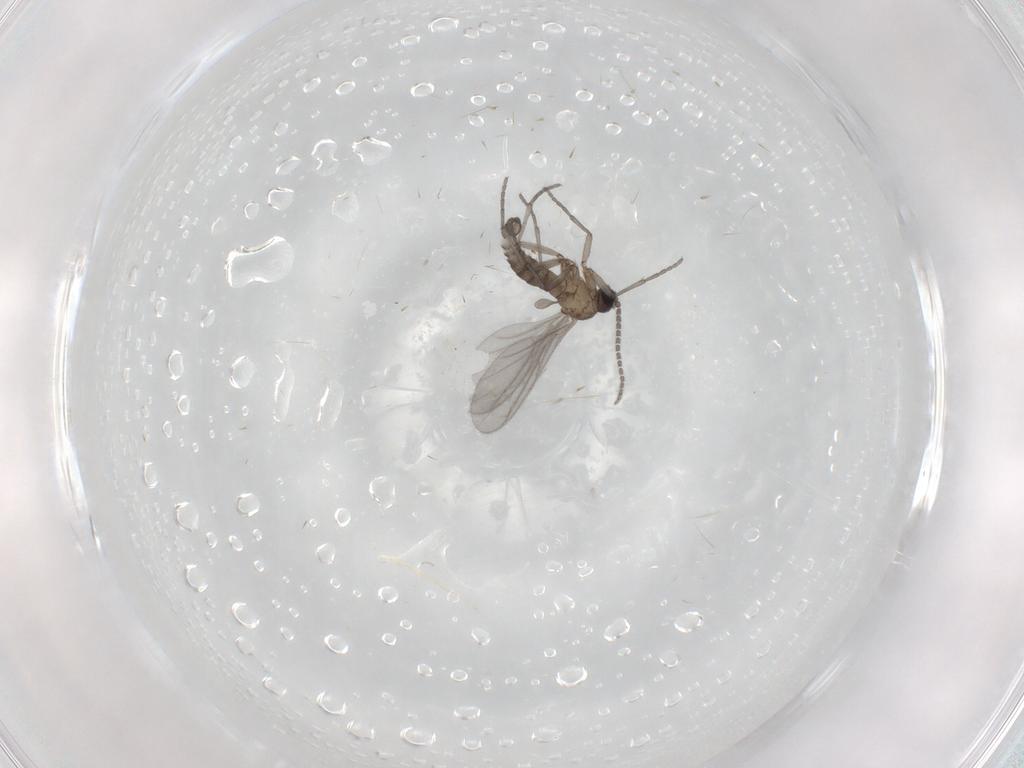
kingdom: Animalia
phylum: Arthropoda
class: Insecta
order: Diptera
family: Sciaridae
